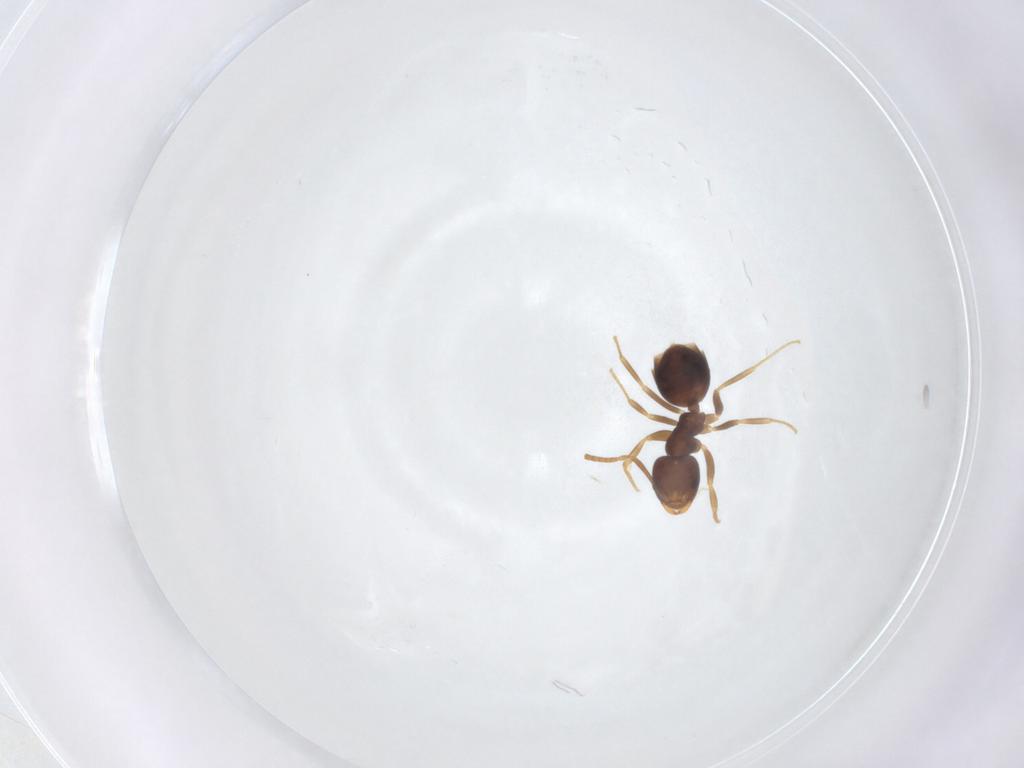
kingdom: Animalia
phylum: Arthropoda
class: Insecta
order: Hymenoptera
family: Formicidae
